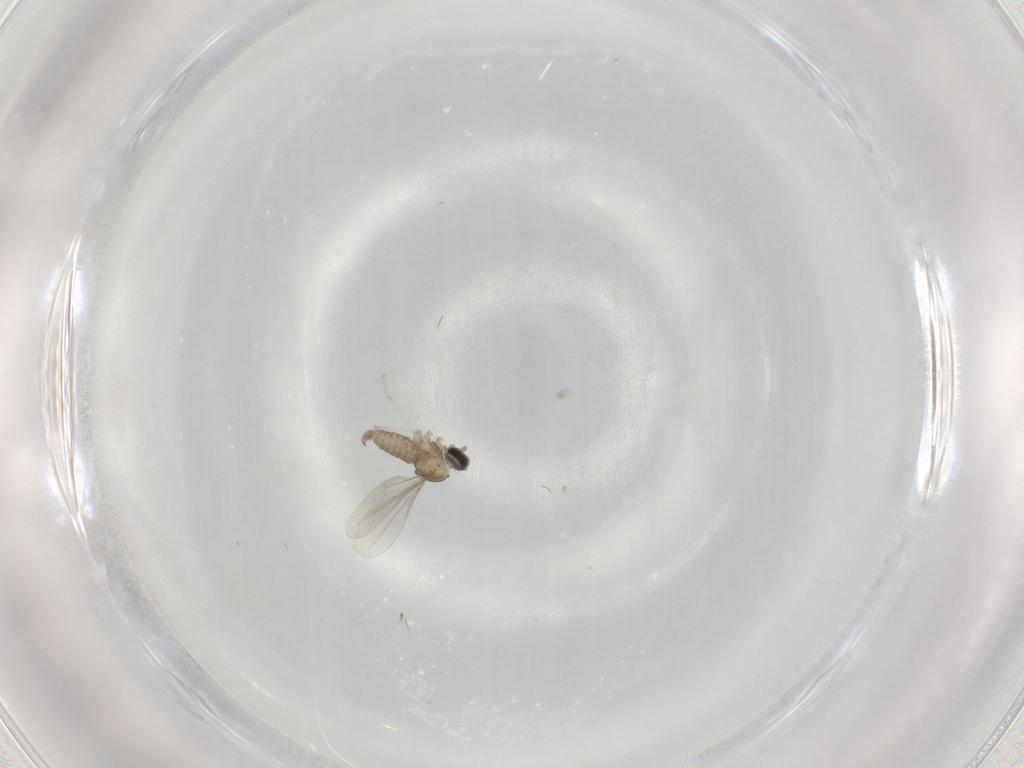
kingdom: Animalia
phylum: Arthropoda
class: Insecta
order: Diptera
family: Cecidomyiidae
